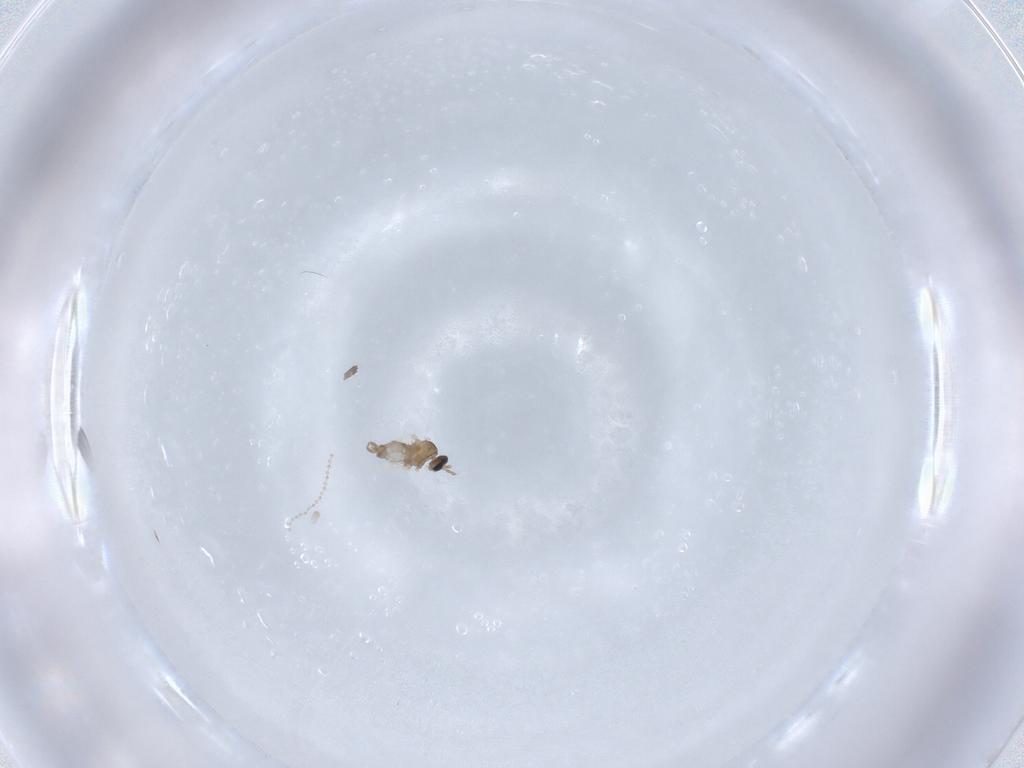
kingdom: Animalia
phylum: Arthropoda
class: Insecta
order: Diptera
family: Cecidomyiidae
